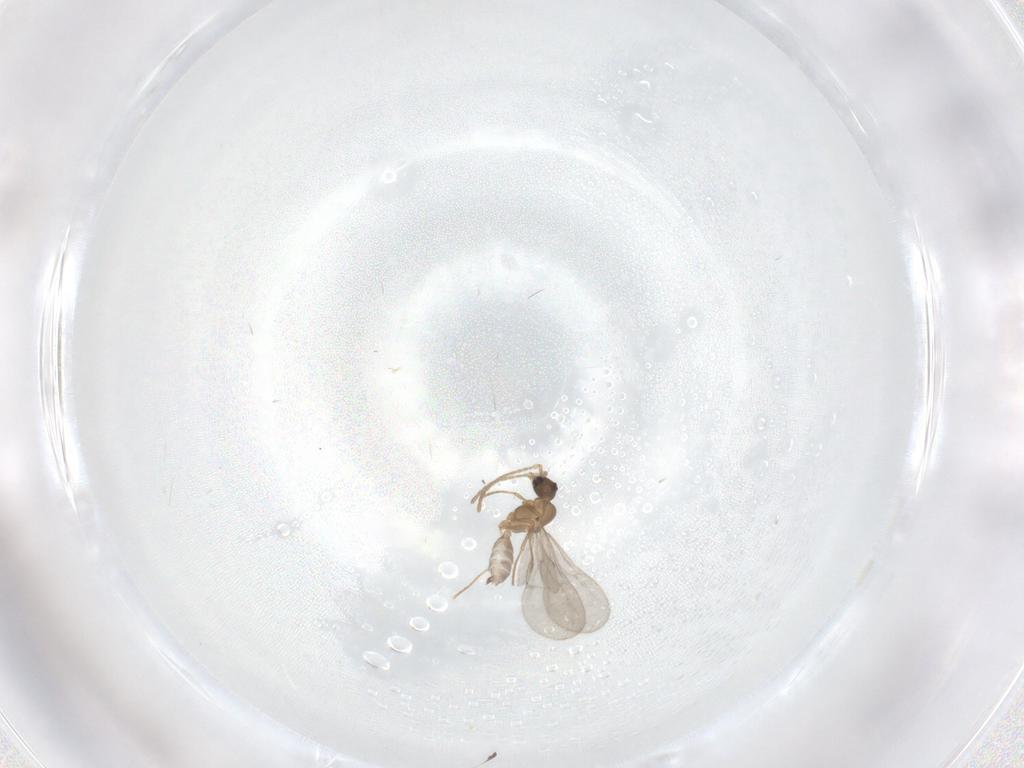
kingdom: Animalia
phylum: Arthropoda
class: Insecta
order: Hymenoptera
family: Formicidae
